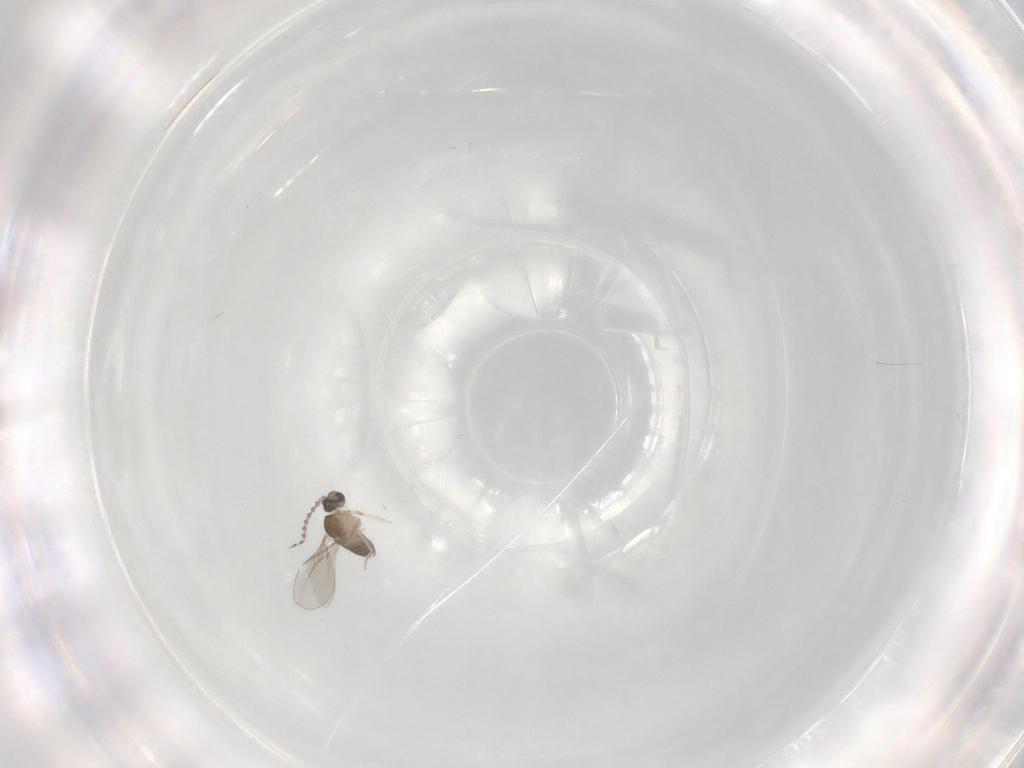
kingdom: Animalia
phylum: Arthropoda
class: Insecta
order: Diptera
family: Cecidomyiidae
